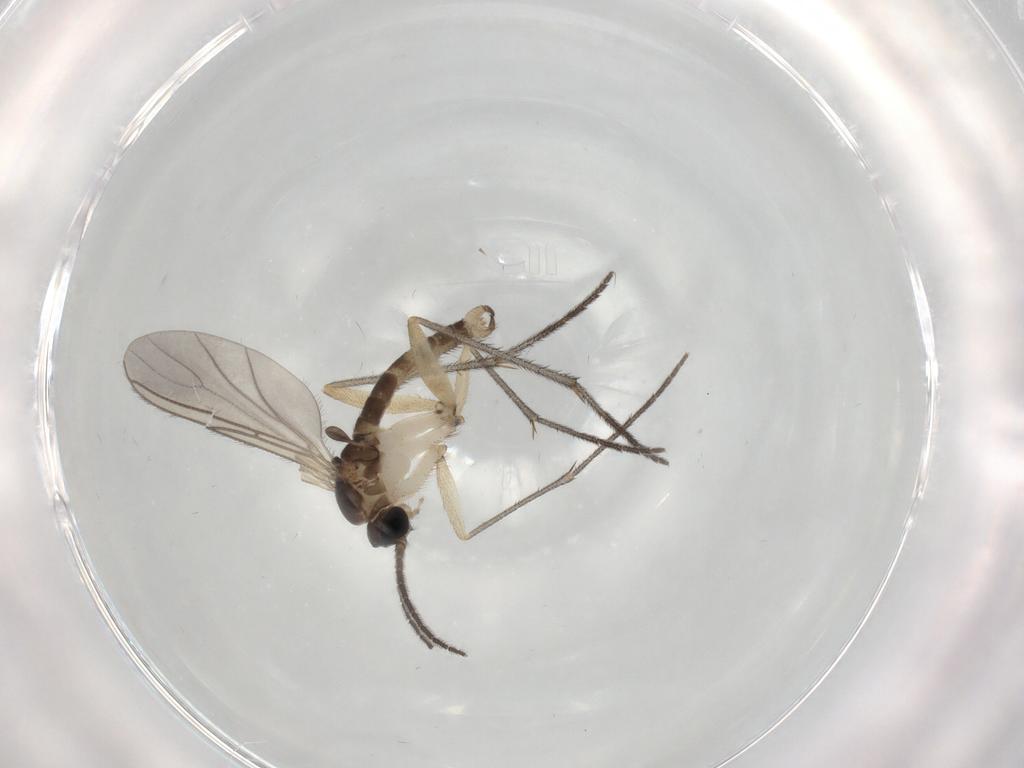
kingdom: Animalia
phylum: Arthropoda
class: Insecta
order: Diptera
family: Sciaridae
